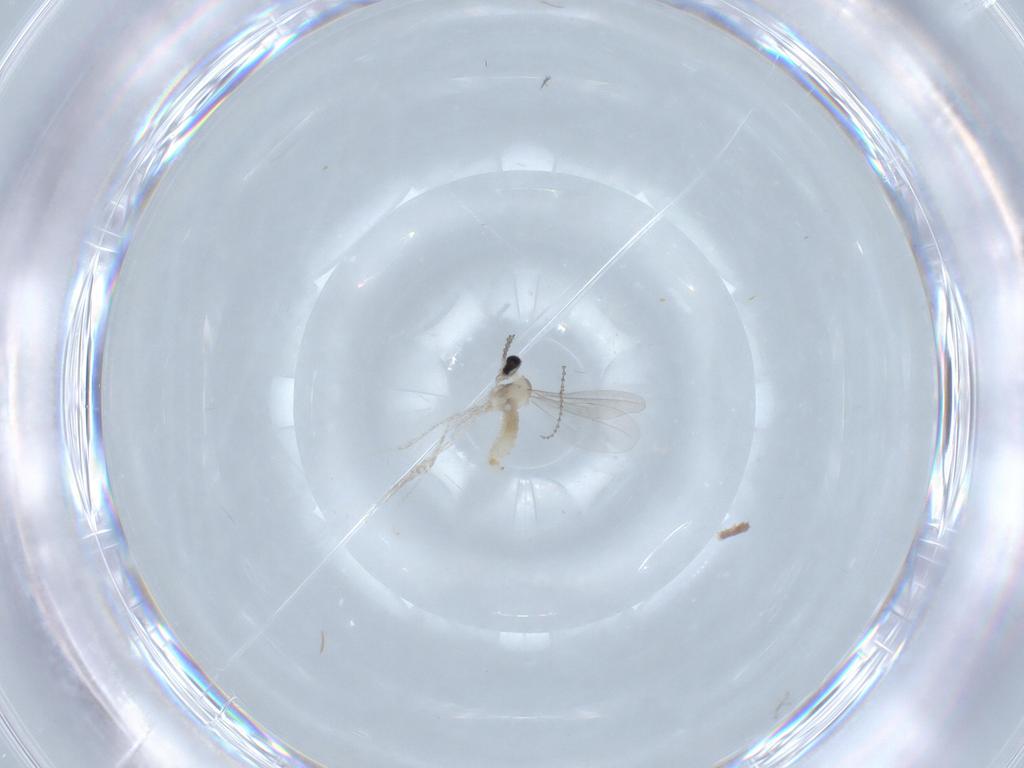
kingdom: Animalia
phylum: Arthropoda
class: Insecta
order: Diptera
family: Cecidomyiidae
